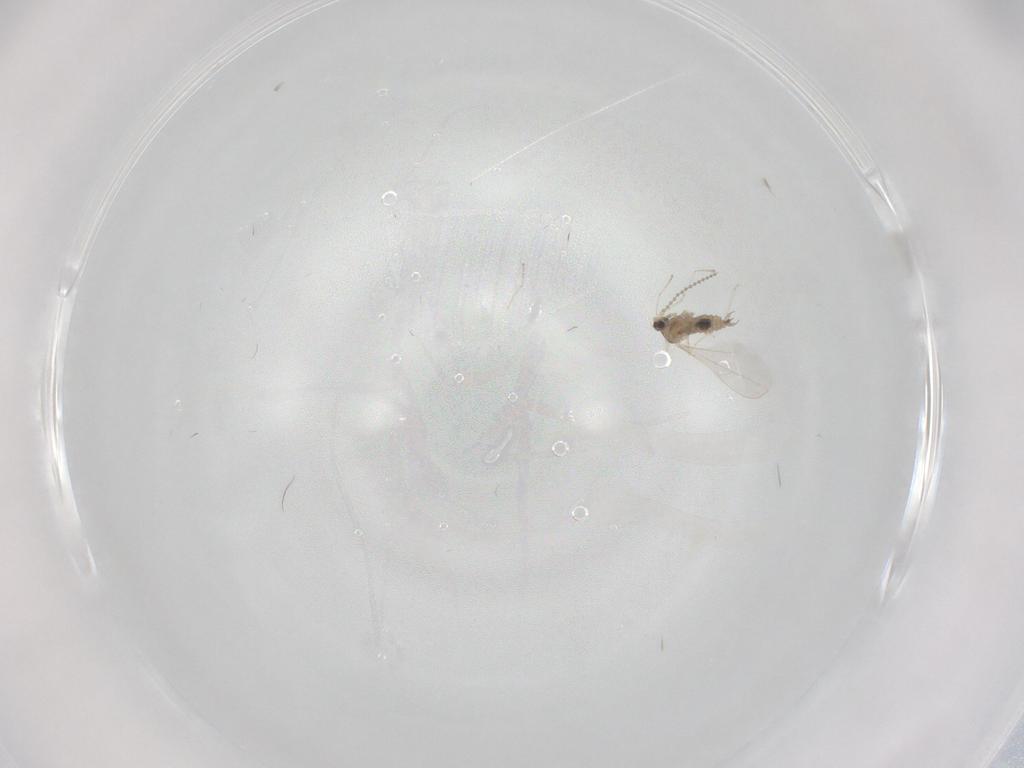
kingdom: Animalia
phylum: Arthropoda
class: Insecta
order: Diptera
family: Cecidomyiidae
